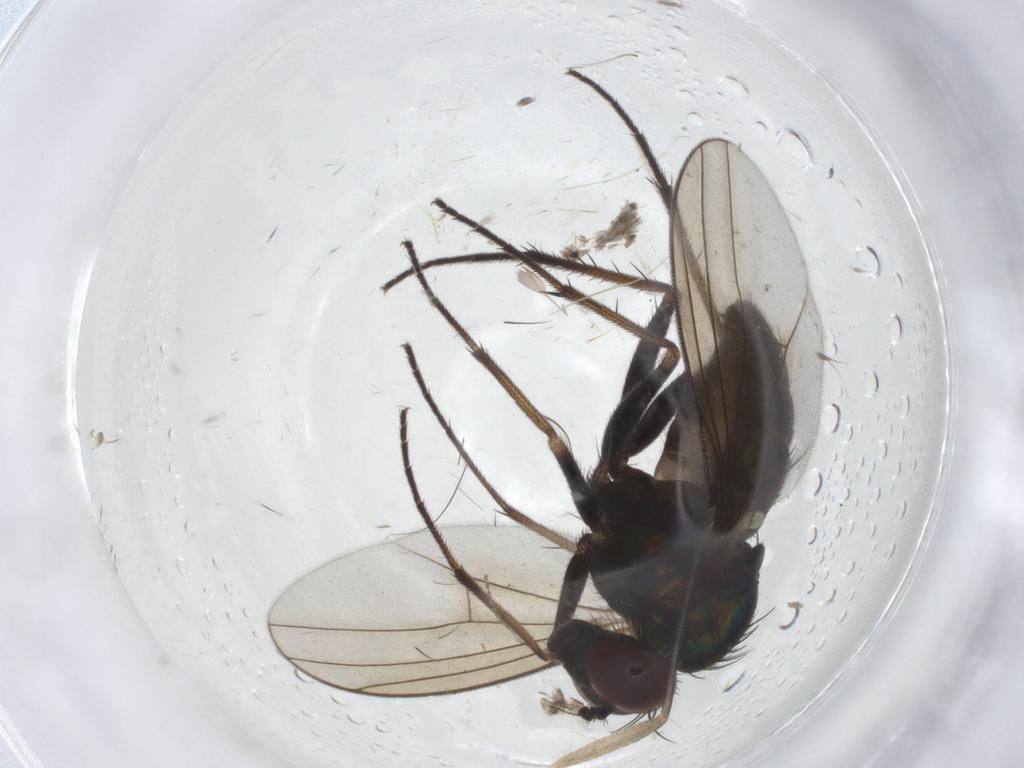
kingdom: Animalia
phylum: Arthropoda
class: Insecta
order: Diptera
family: Dolichopodidae
